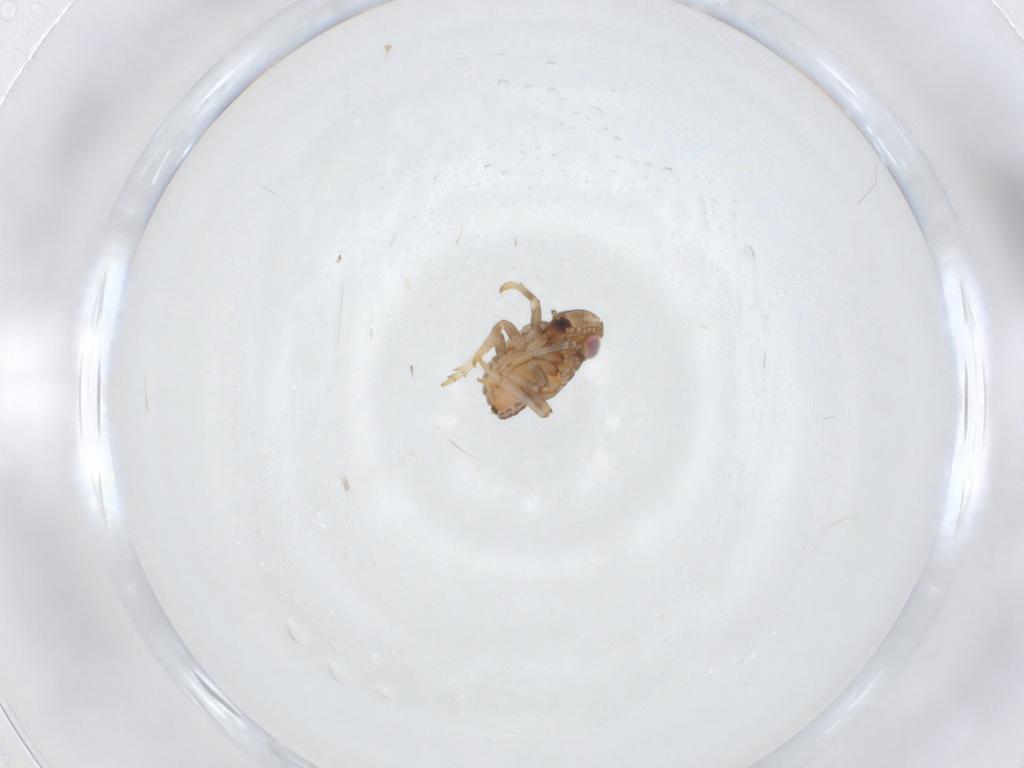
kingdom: Animalia
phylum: Arthropoda
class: Insecta
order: Hemiptera
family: Issidae
